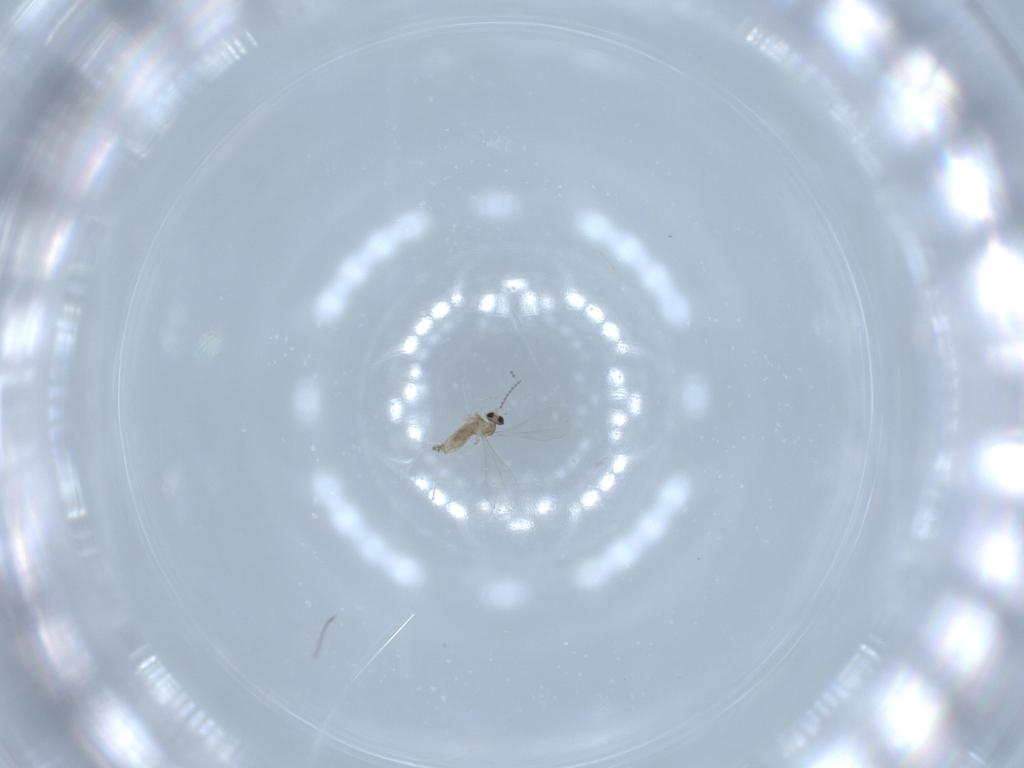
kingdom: Animalia
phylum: Arthropoda
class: Insecta
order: Diptera
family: Cecidomyiidae
